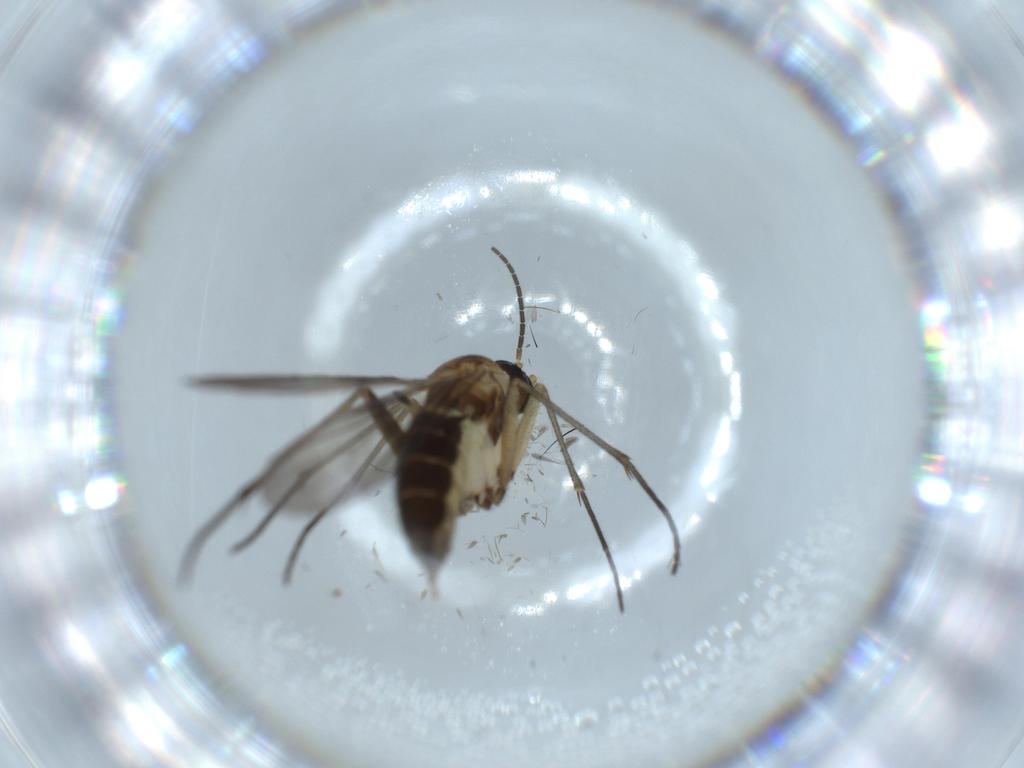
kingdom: Animalia
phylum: Arthropoda
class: Insecta
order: Diptera
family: Sciaridae
